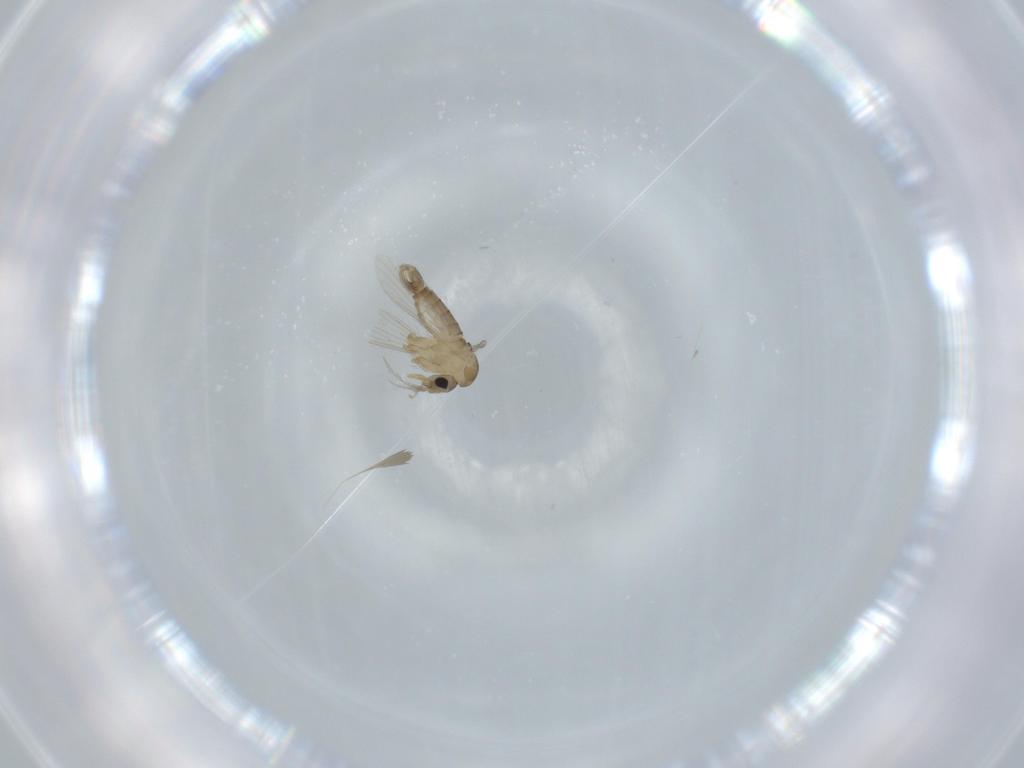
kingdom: Animalia
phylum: Arthropoda
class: Insecta
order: Diptera
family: Psychodidae
